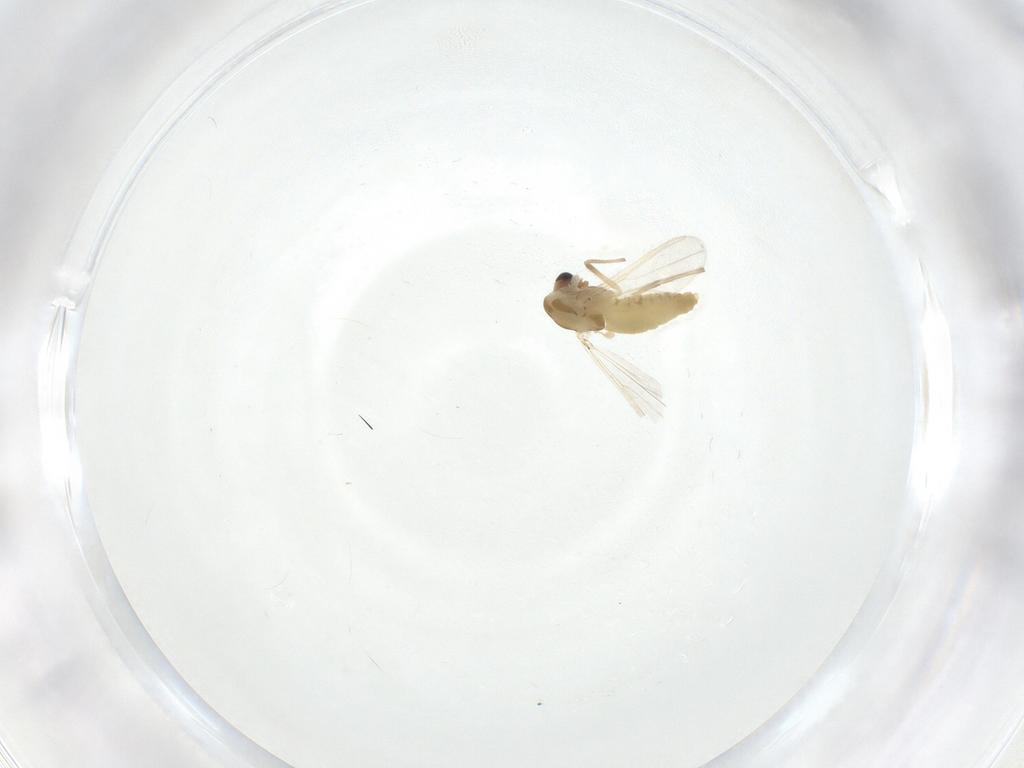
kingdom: Animalia
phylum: Arthropoda
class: Insecta
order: Diptera
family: Chironomidae
